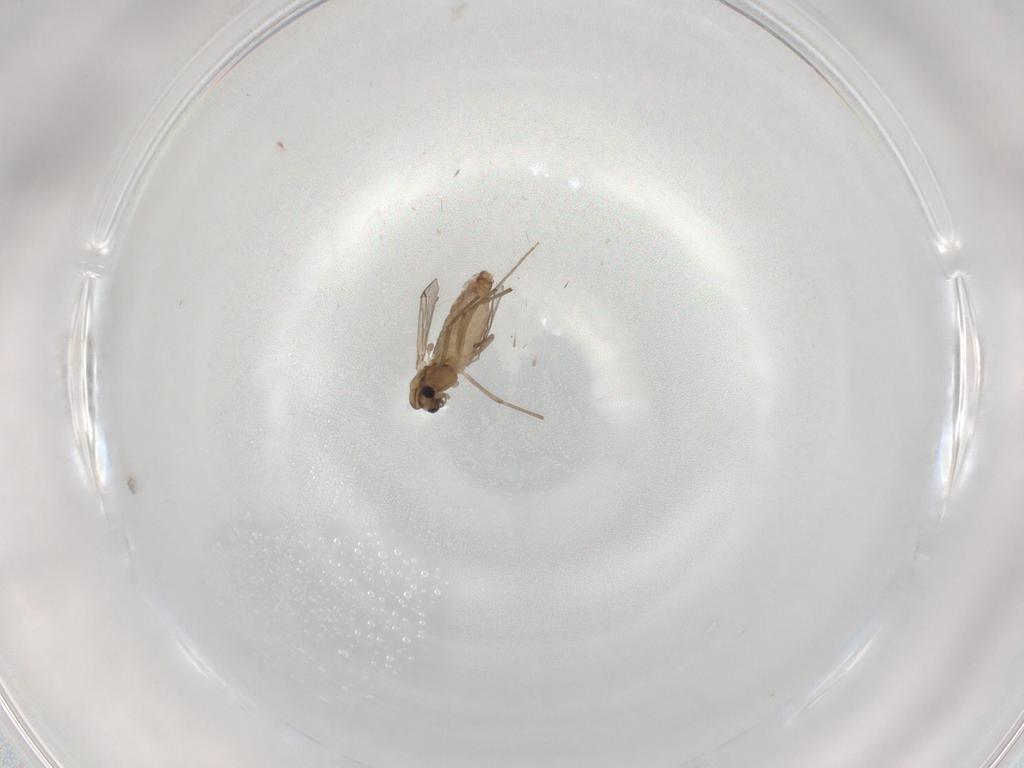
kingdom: Animalia
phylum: Arthropoda
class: Insecta
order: Diptera
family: Chironomidae
